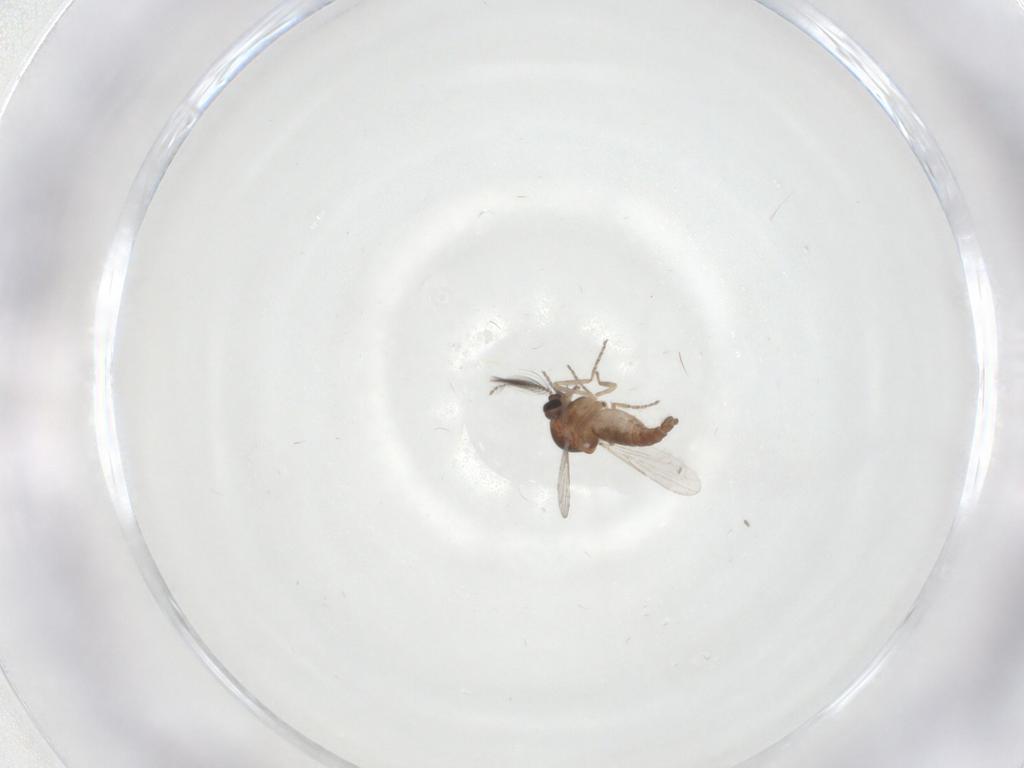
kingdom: Animalia
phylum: Arthropoda
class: Insecta
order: Diptera
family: Ceratopogonidae
